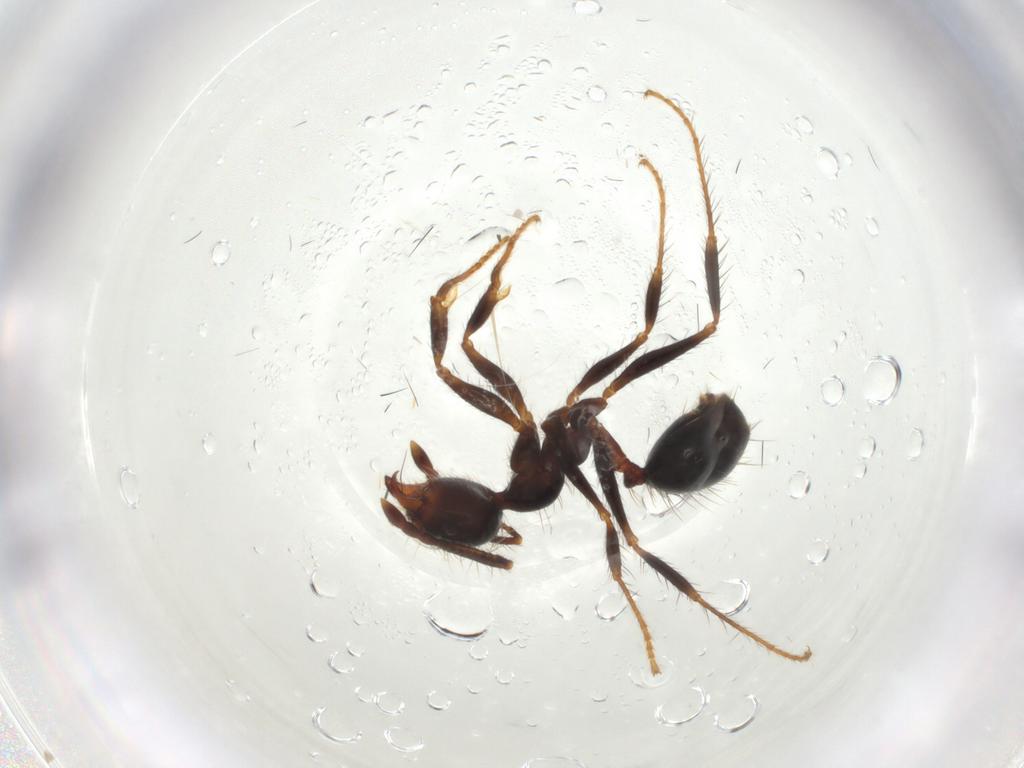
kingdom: Animalia
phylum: Arthropoda
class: Insecta
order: Hymenoptera
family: Formicidae
